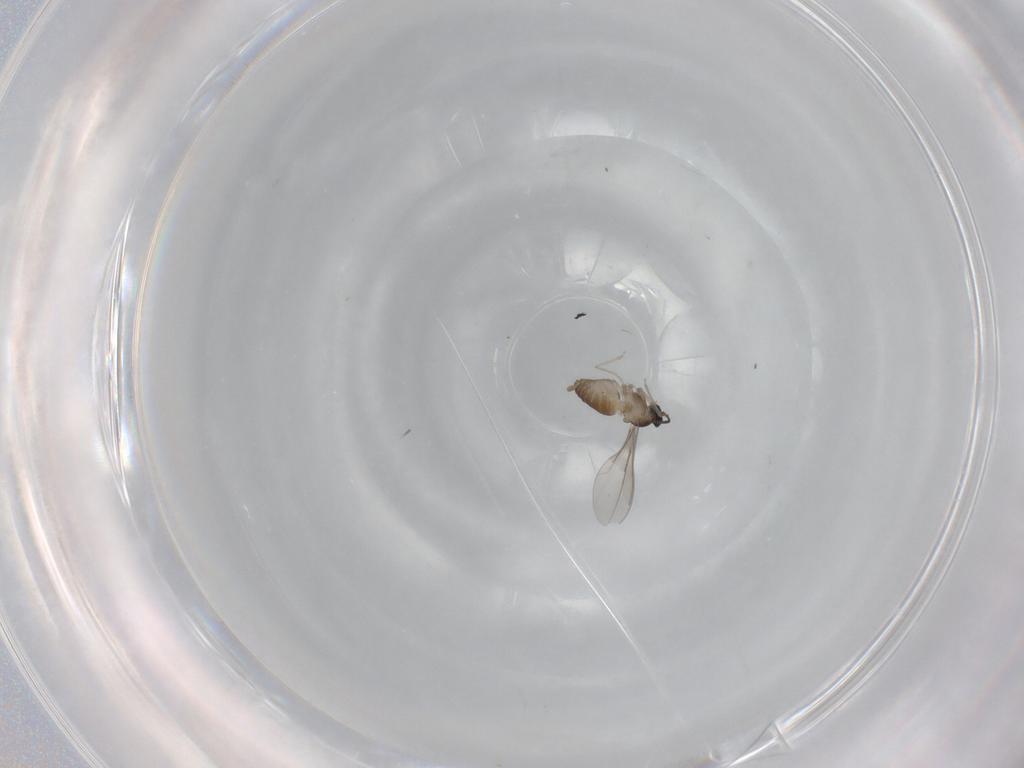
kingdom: Animalia
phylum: Arthropoda
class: Insecta
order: Diptera
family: Cecidomyiidae
